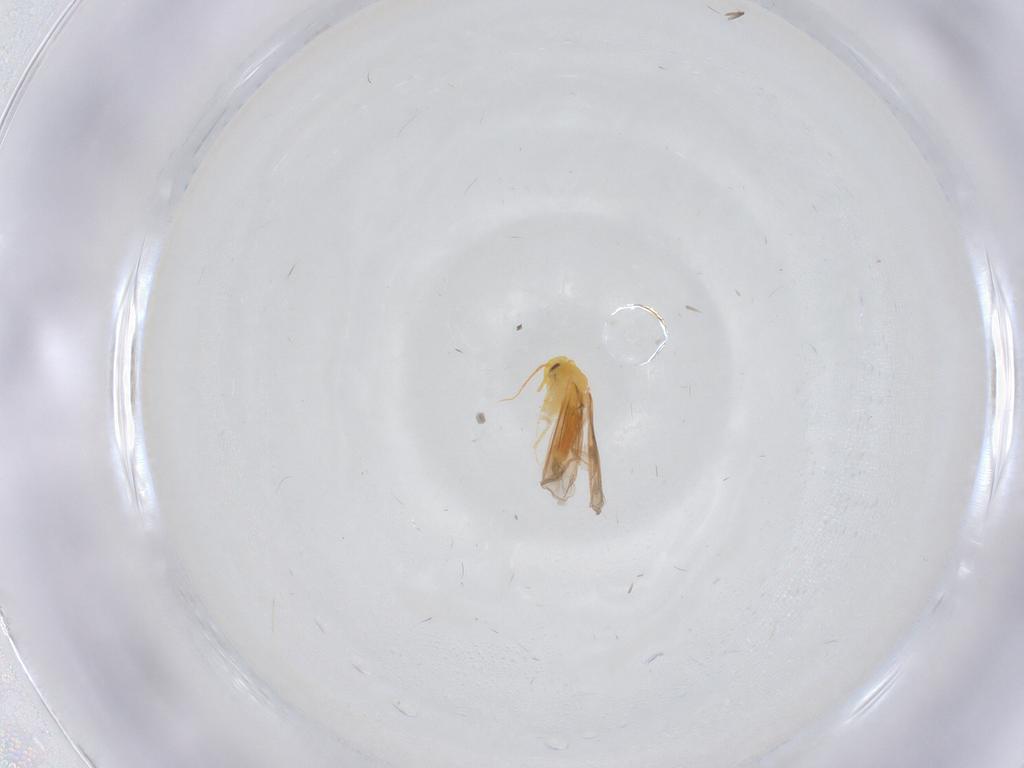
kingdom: Animalia
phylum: Arthropoda
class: Insecta
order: Hemiptera
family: Aleyrodidae
